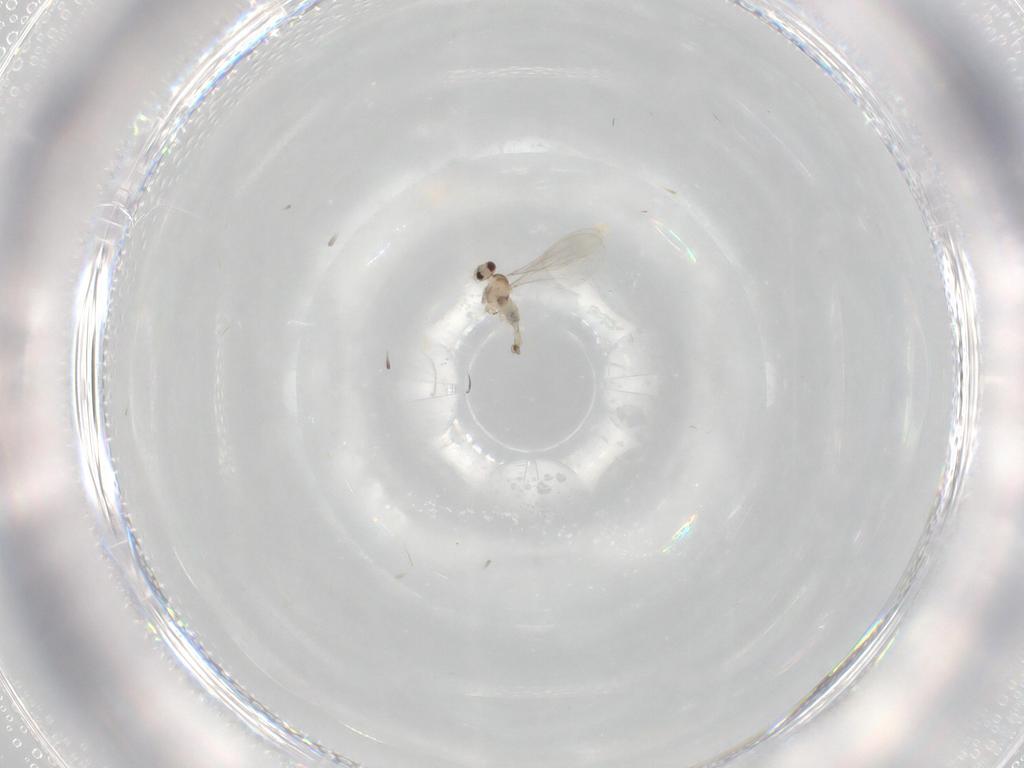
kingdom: Animalia
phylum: Arthropoda
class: Insecta
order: Diptera
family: Cecidomyiidae
